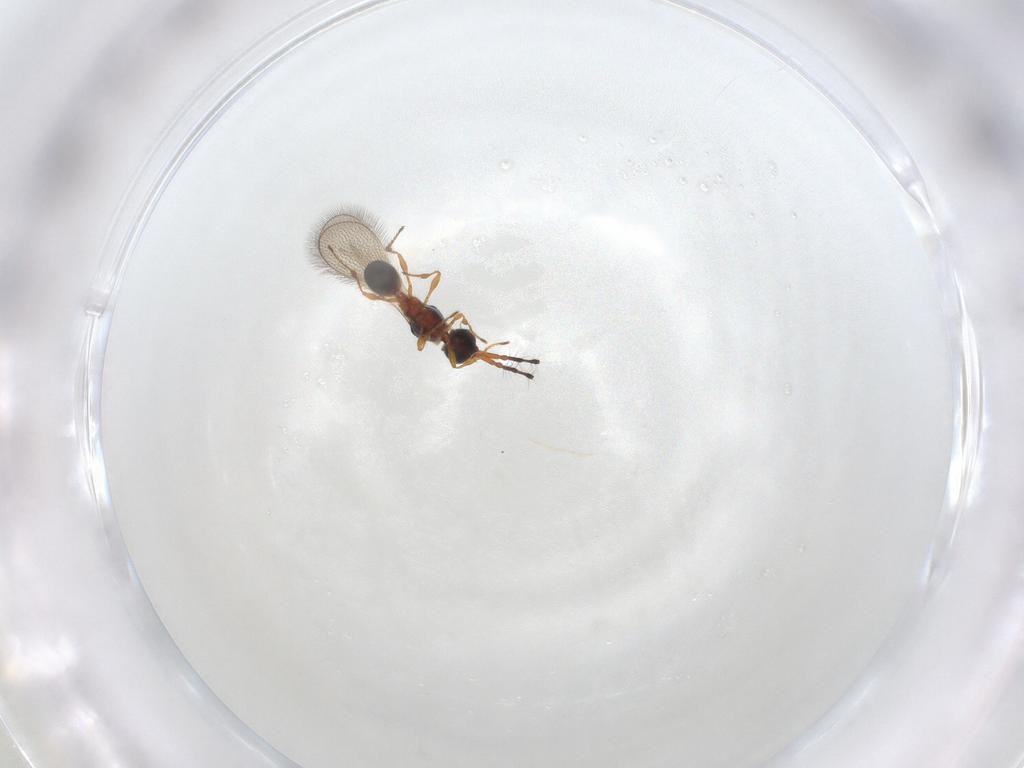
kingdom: Animalia
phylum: Arthropoda
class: Insecta
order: Hymenoptera
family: Diapriidae
